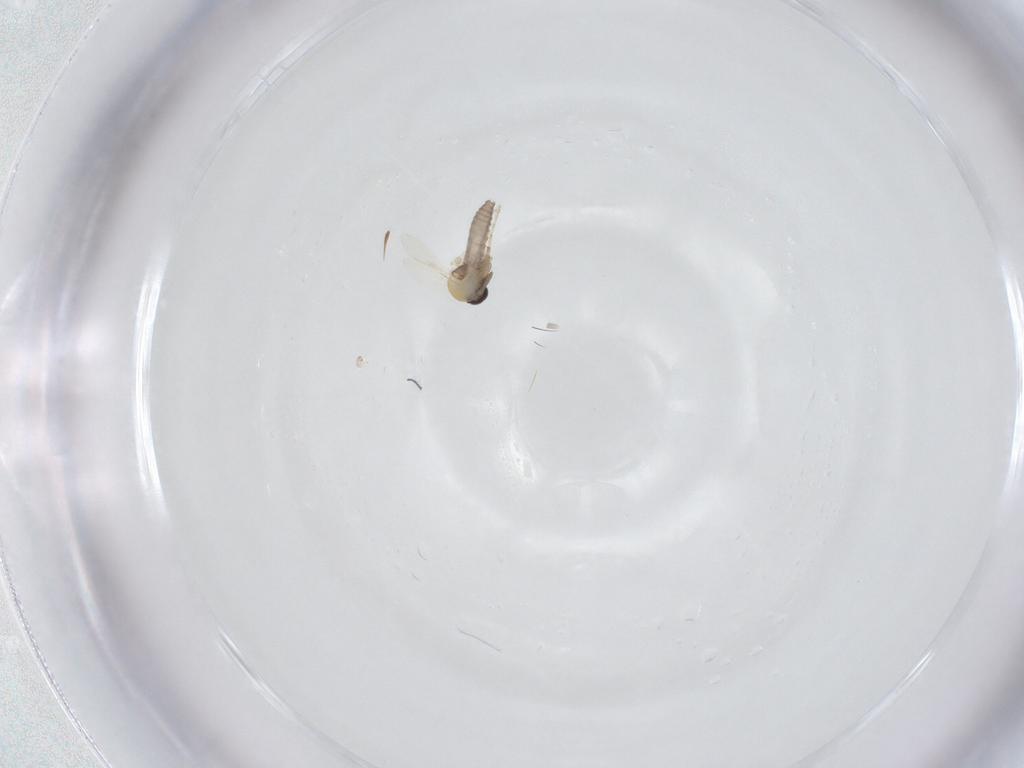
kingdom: Animalia
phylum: Arthropoda
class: Insecta
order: Diptera
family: Ceratopogonidae
